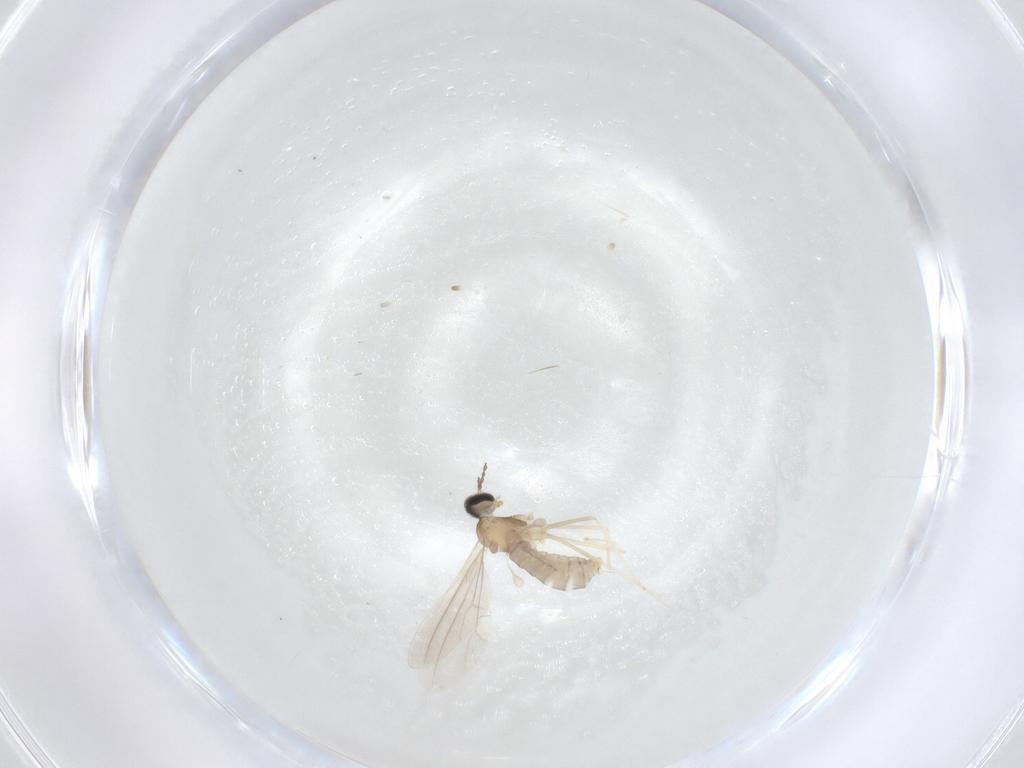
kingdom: Animalia
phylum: Arthropoda
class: Insecta
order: Diptera
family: Cecidomyiidae
